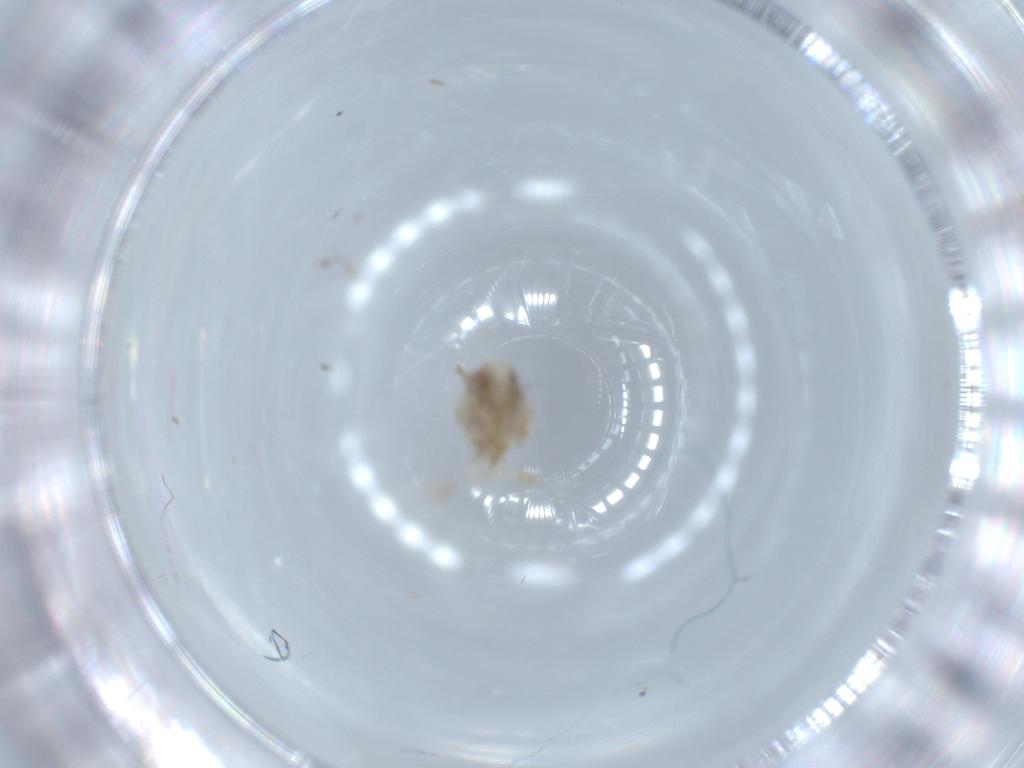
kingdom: Animalia
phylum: Arthropoda
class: Insecta
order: Hemiptera
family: Acanaloniidae
